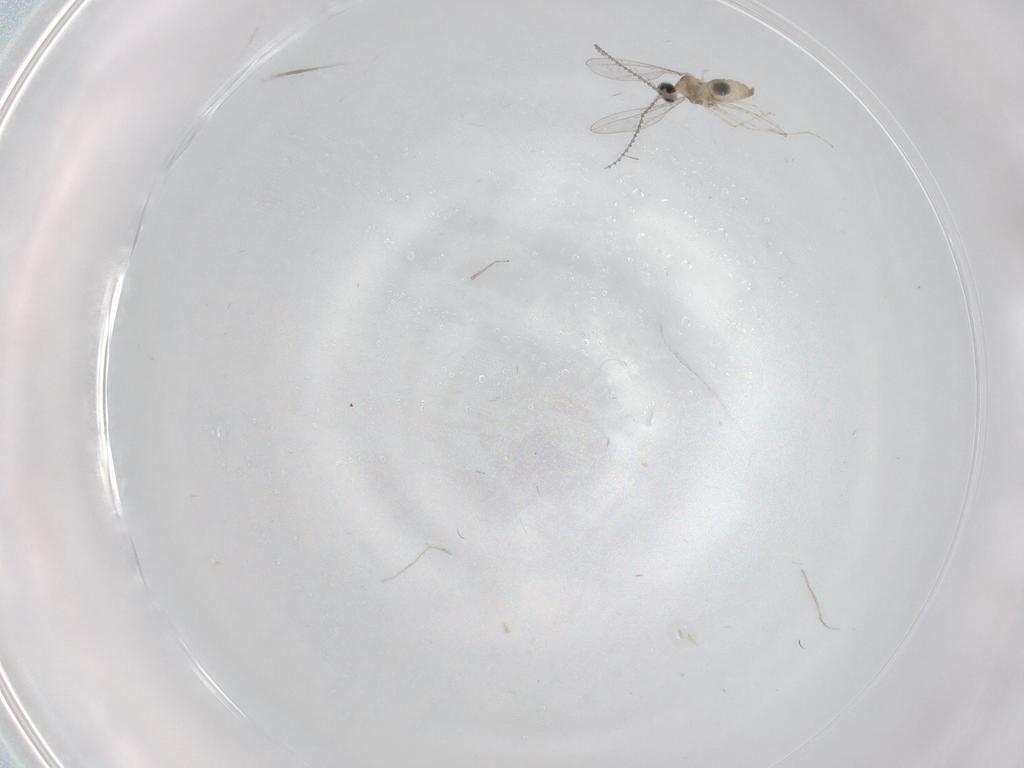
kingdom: Animalia
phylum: Arthropoda
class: Insecta
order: Diptera
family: Cecidomyiidae
